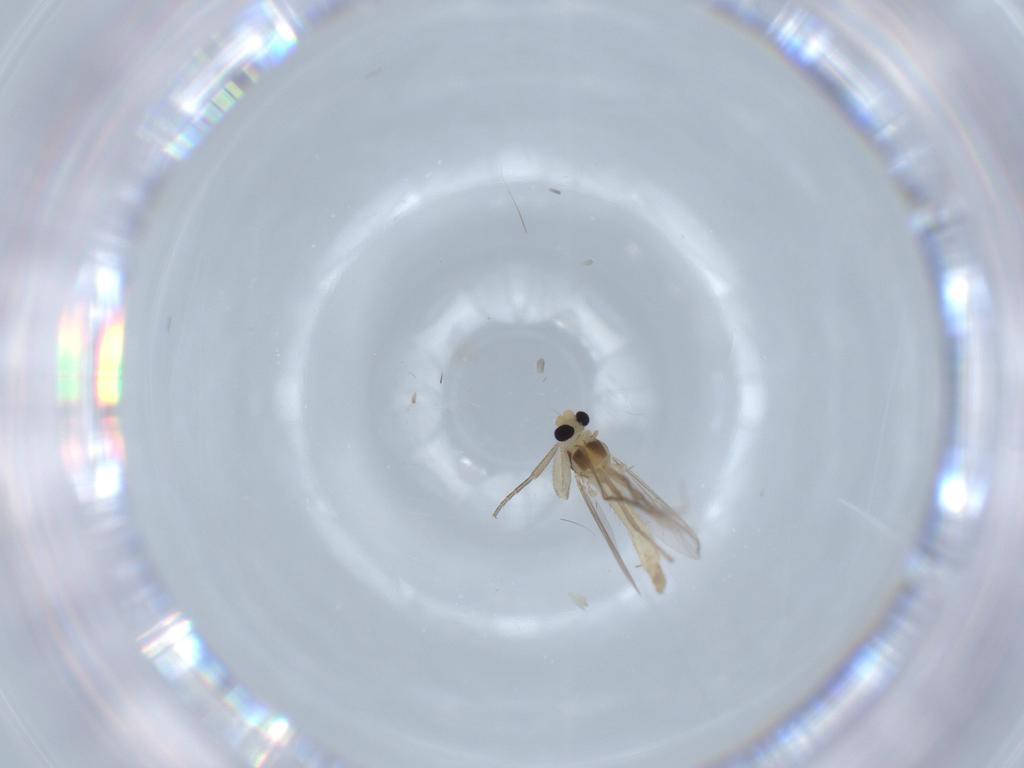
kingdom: Animalia
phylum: Arthropoda
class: Insecta
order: Diptera
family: Chironomidae
